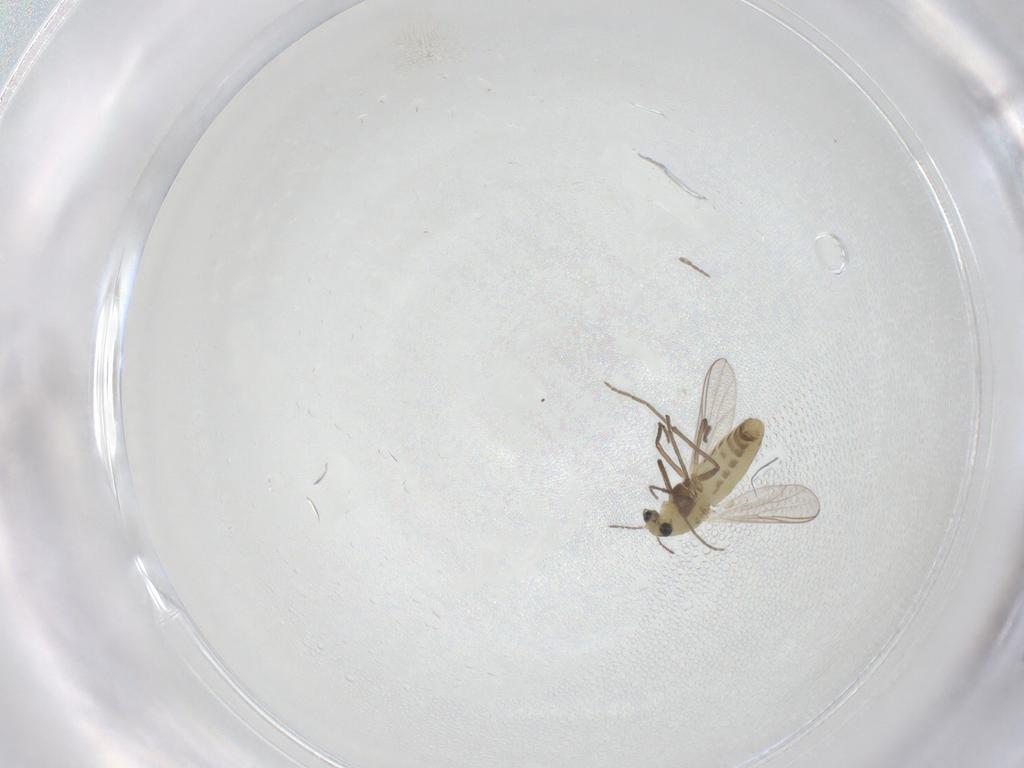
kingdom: Animalia
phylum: Arthropoda
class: Insecta
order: Diptera
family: Chironomidae
